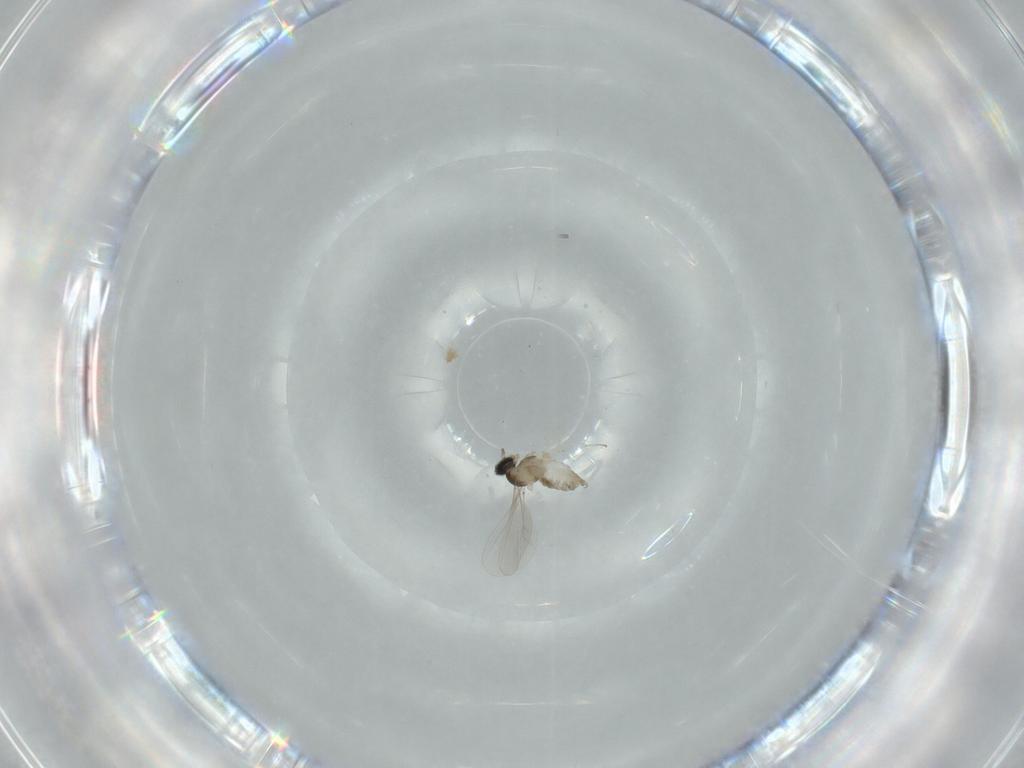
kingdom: Animalia
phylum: Arthropoda
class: Insecta
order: Diptera
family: Cecidomyiidae
